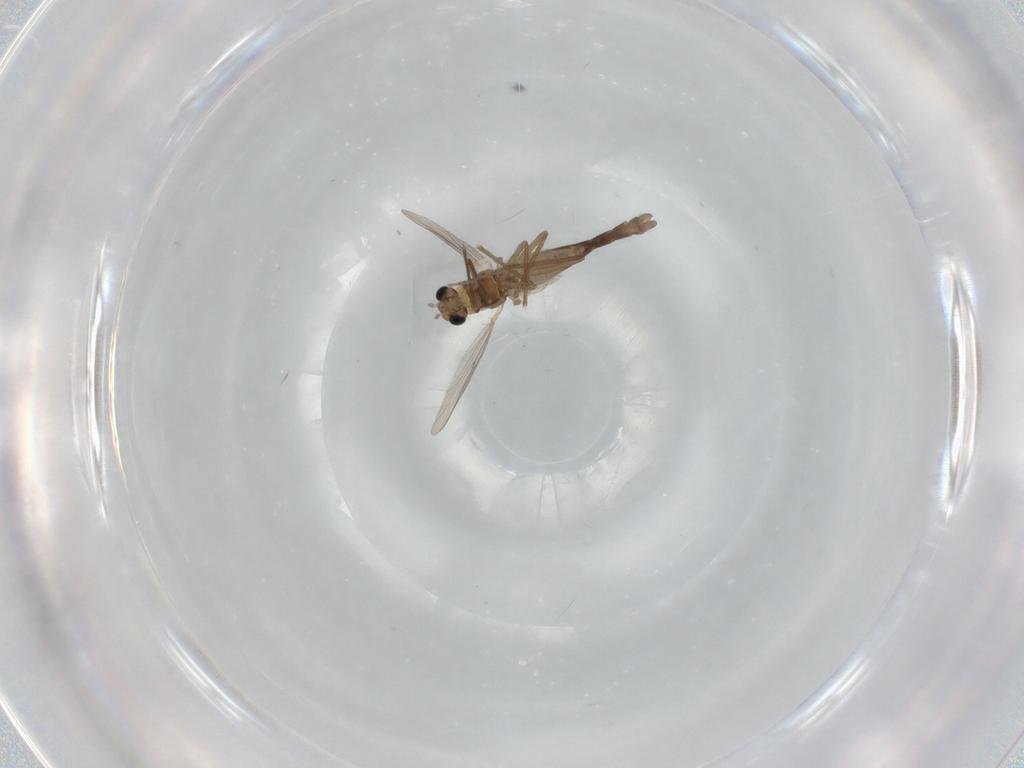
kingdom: Animalia
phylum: Arthropoda
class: Insecta
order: Diptera
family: Chironomidae
